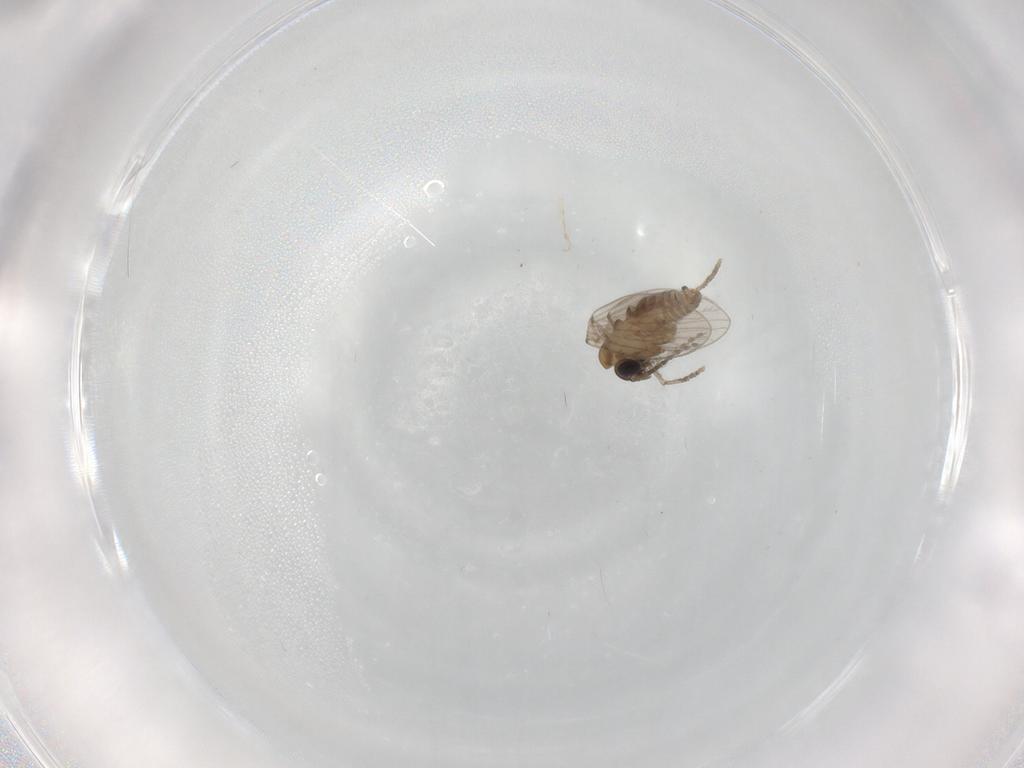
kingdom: Animalia
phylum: Arthropoda
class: Insecta
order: Diptera
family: Psychodidae
